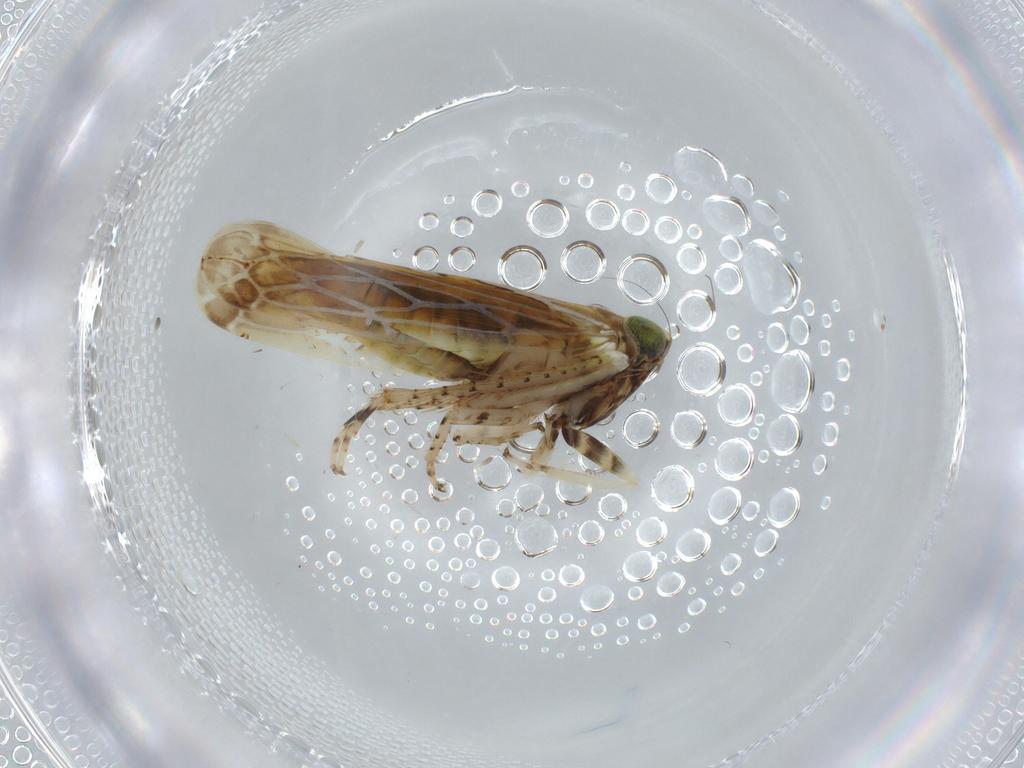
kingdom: Animalia
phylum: Arthropoda
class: Insecta
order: Hemiptera
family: Cicadellidae
